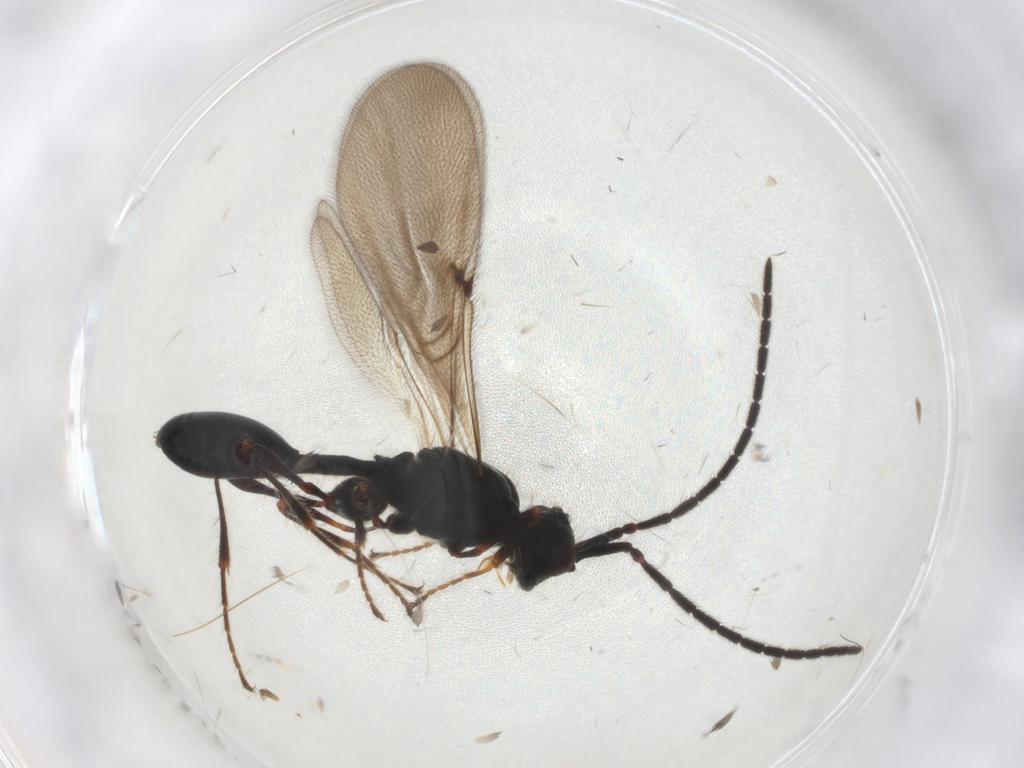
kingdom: Animalia
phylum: Arthropoda
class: Insecta
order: Hymenoptera
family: Diapriidae
